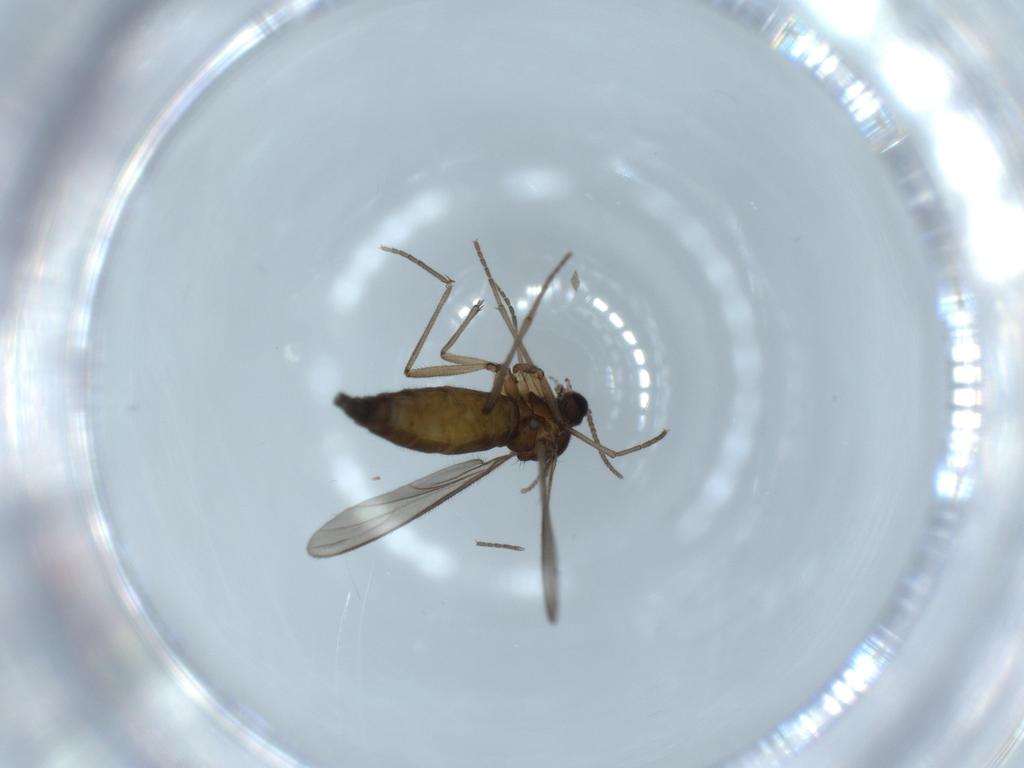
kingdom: Animalia
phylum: Arthropoda
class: Insecta
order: Diptera
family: Sciaridae
